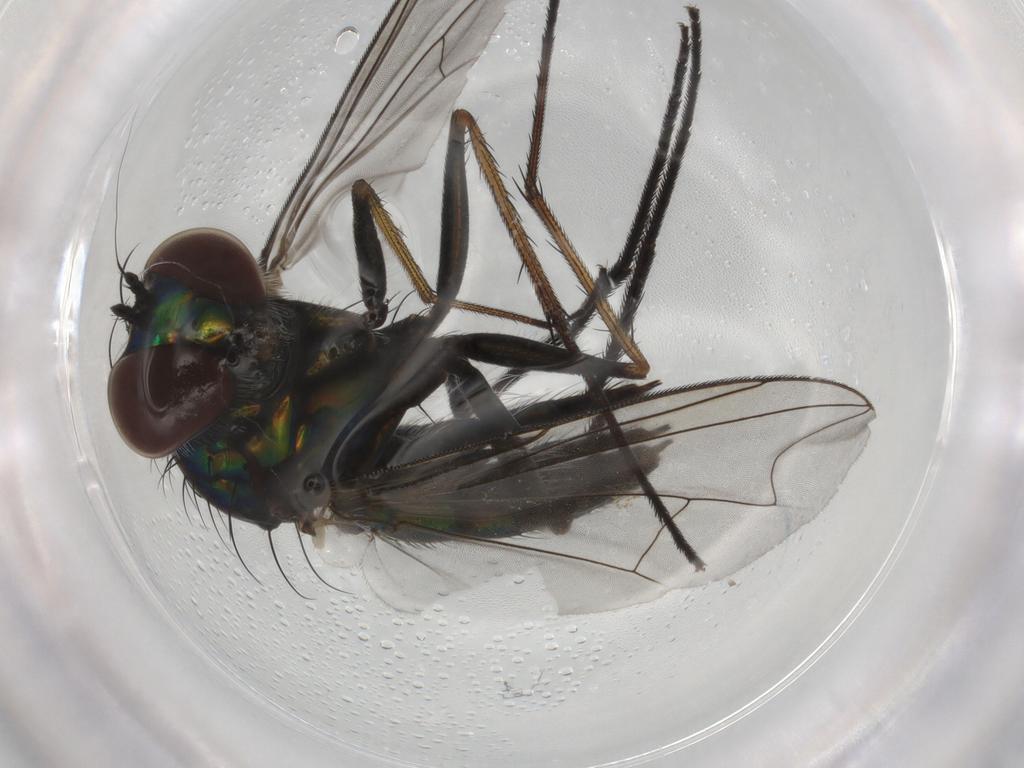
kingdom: Animalia
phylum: Arthropoda
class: Insecta
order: Diptera
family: Dolichopodidae
